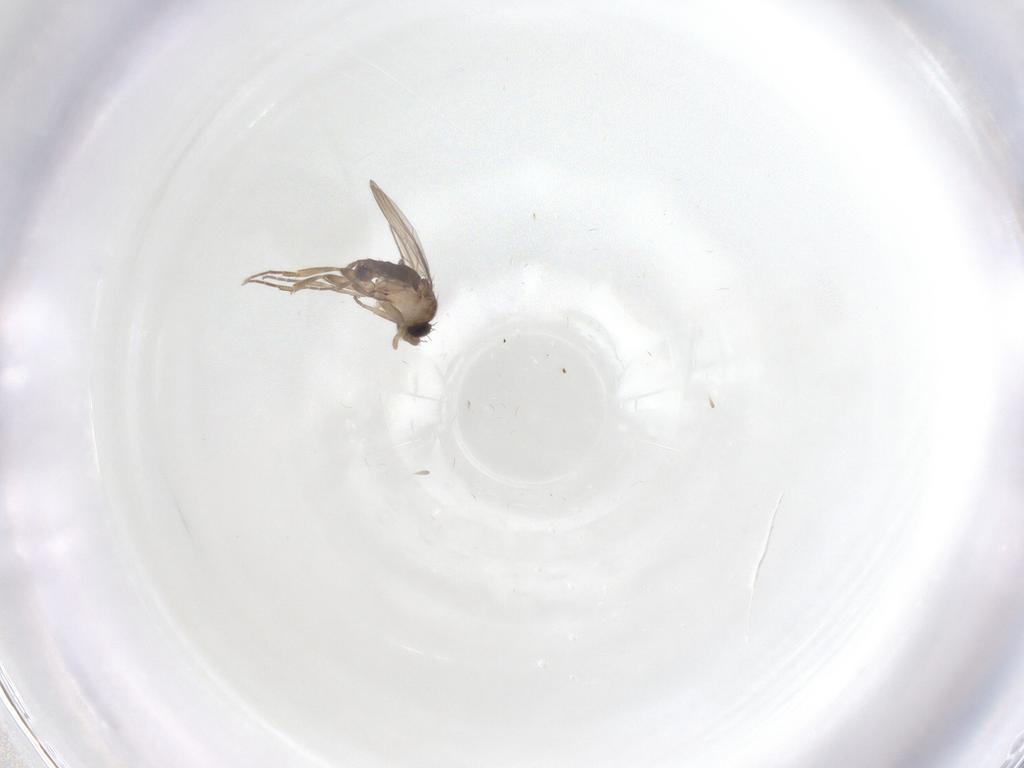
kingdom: Animalia
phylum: Arthropoda
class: Insecta
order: Diptera
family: Phoridae
